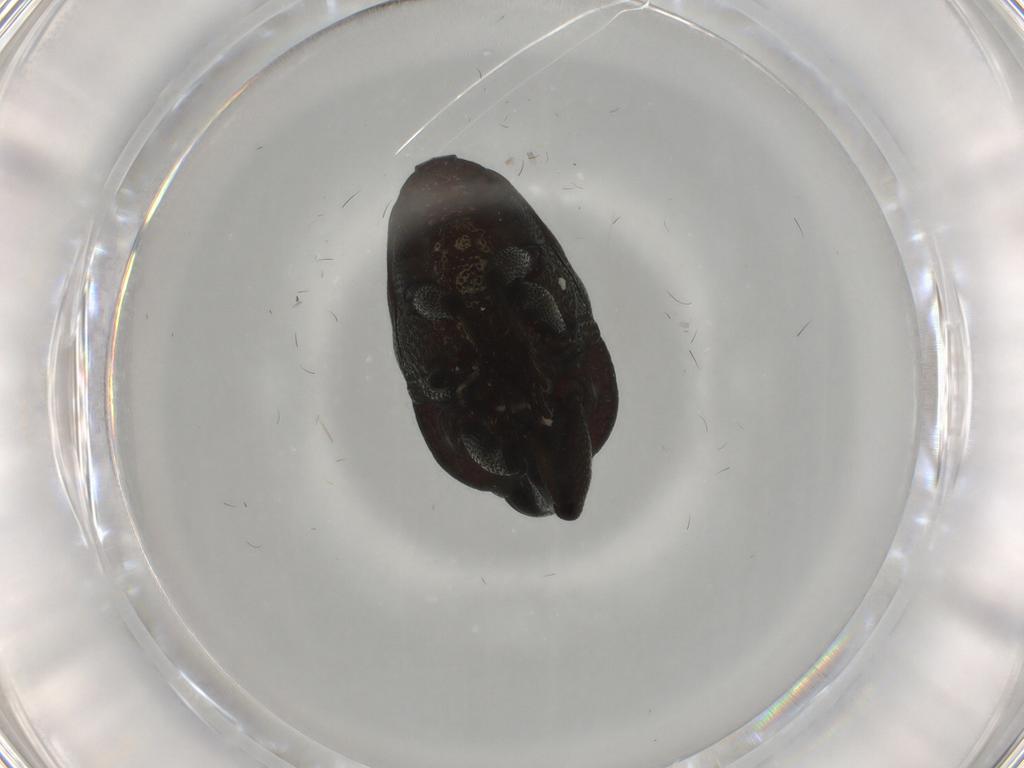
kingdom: Animalia
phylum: Arthropoda
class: Insecta
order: Coleoptera
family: Curculionidae
